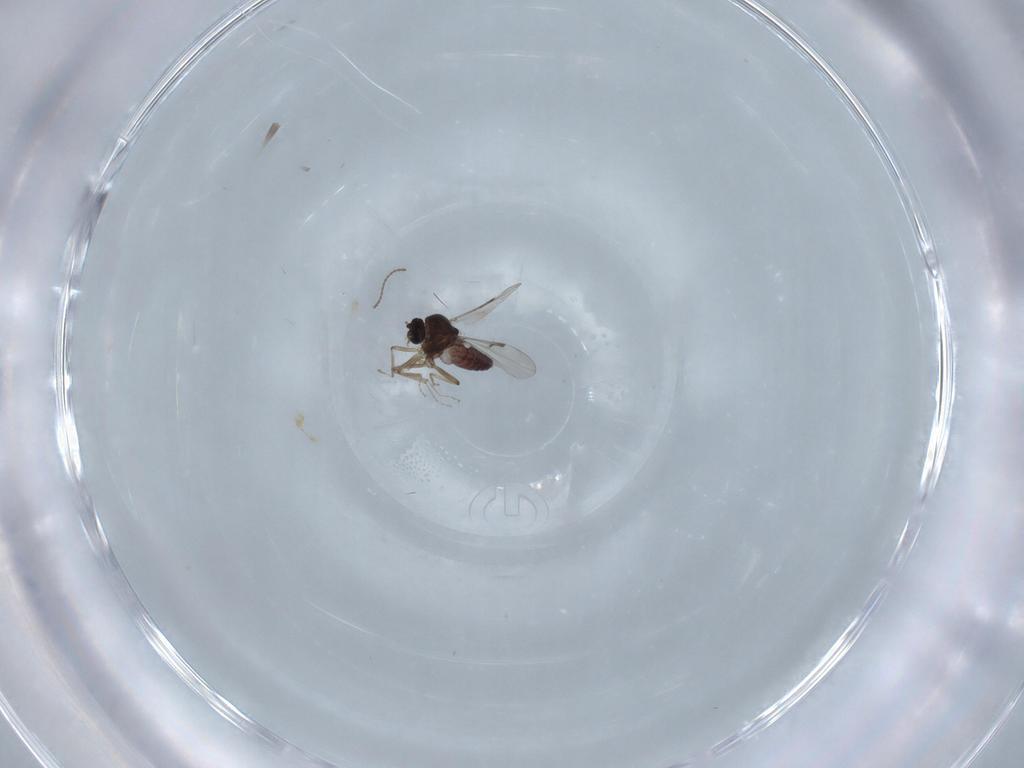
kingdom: Animalia
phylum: Arthropoda
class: Insecta
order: Diptera
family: Ceratopogonidae
